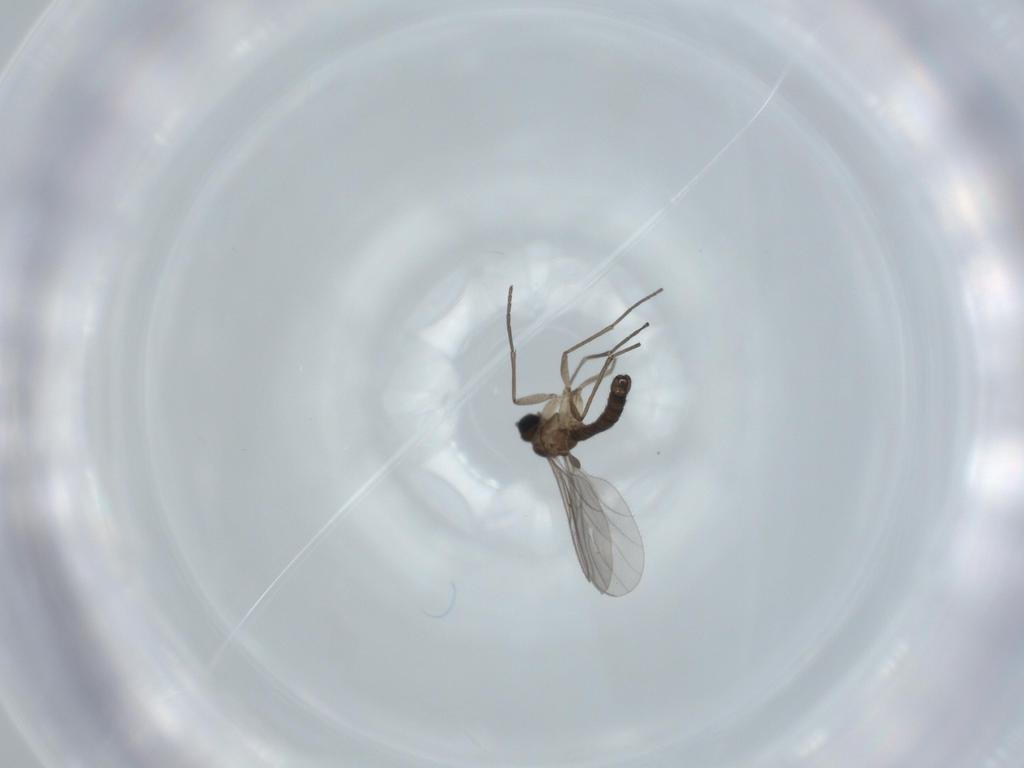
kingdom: Animalia
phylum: Arthropoda
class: Insecta
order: Diptera
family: Sciaridae
